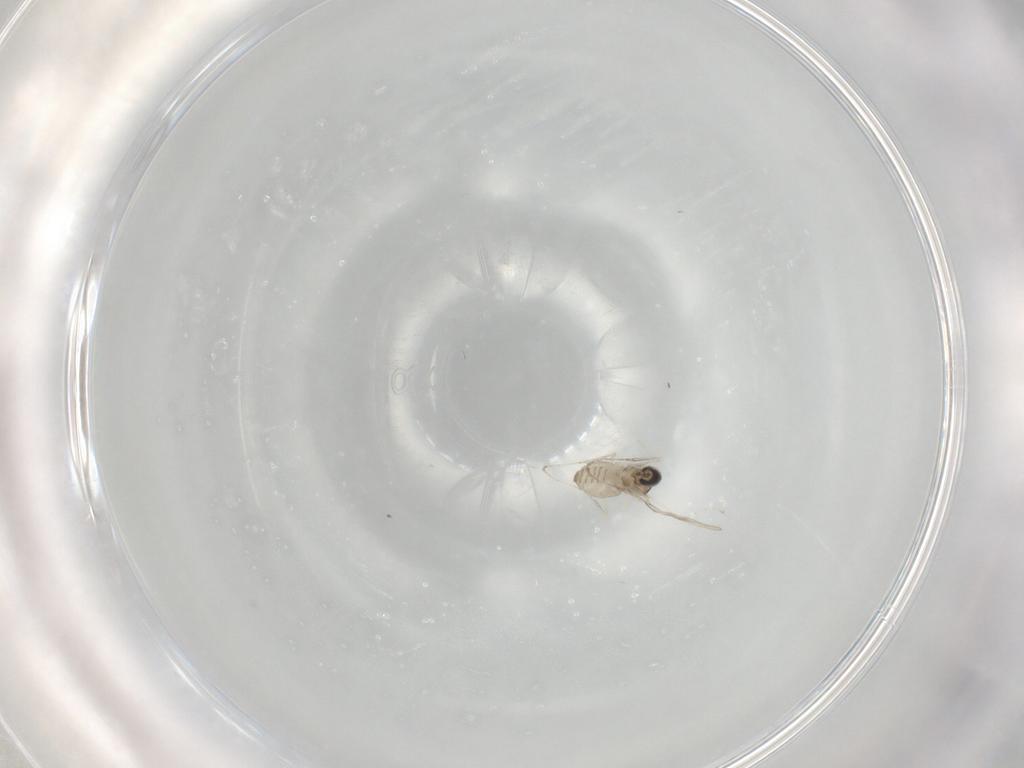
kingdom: Animalia
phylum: Arthropoda
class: Insecta
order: Diptera
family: Cecidomyiidae
